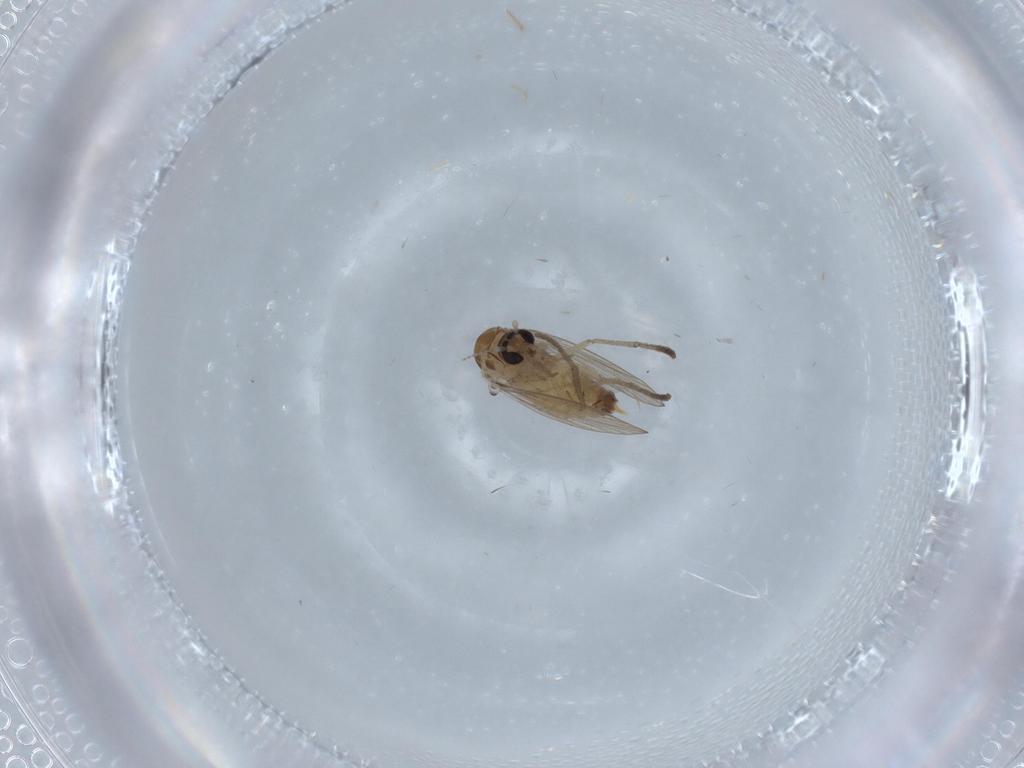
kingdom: Animalia
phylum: Arthropoda
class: Insecta
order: Diptera
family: Psychodidae
